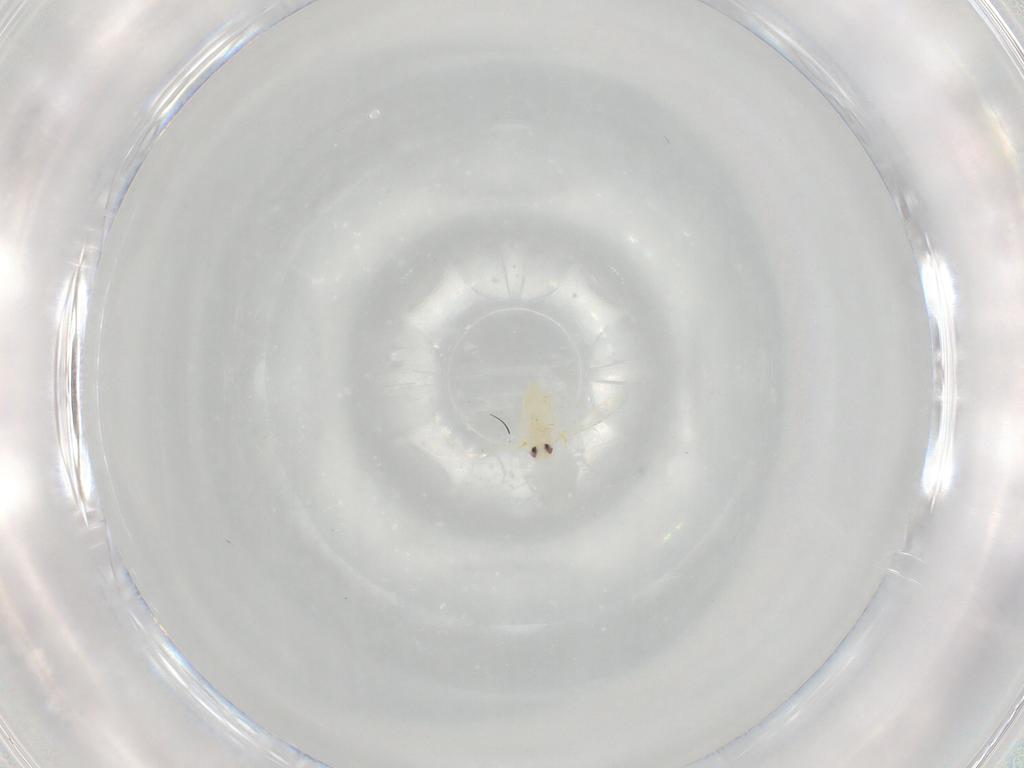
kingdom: Animalia
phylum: Arthropoda
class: Insecta
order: Hemiptera
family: Aleyrodidae
